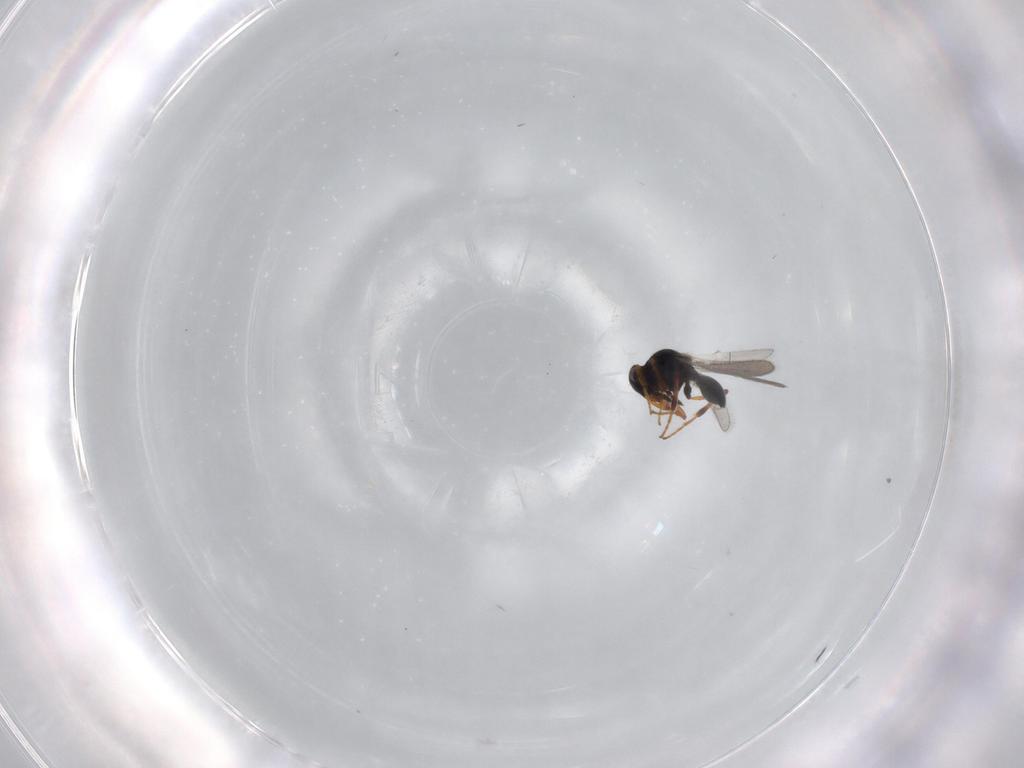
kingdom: Animalia
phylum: Arthropoda
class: Insecta
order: Hymenoptera
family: Platygastridae
